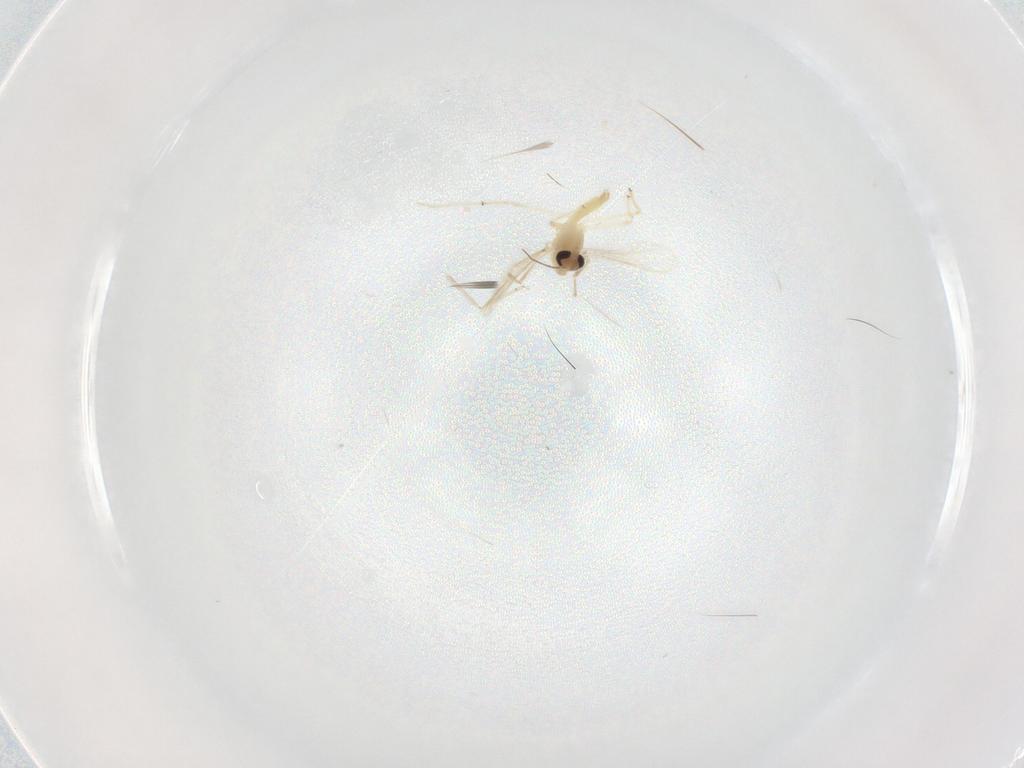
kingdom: Animalia
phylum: Arthropoda
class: Insecta
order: Diptera
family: Cecidomyiidae
